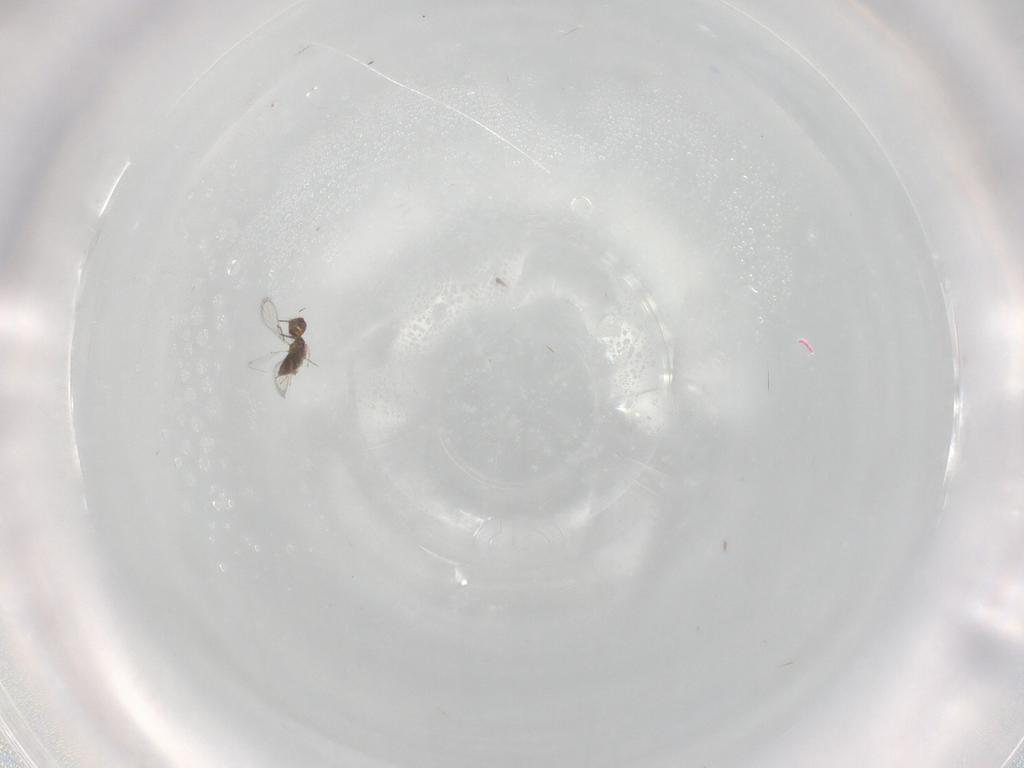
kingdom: Animalia
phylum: Arthropoda
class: Insecta
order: Hymenoptera
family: Trichogrammatidae
